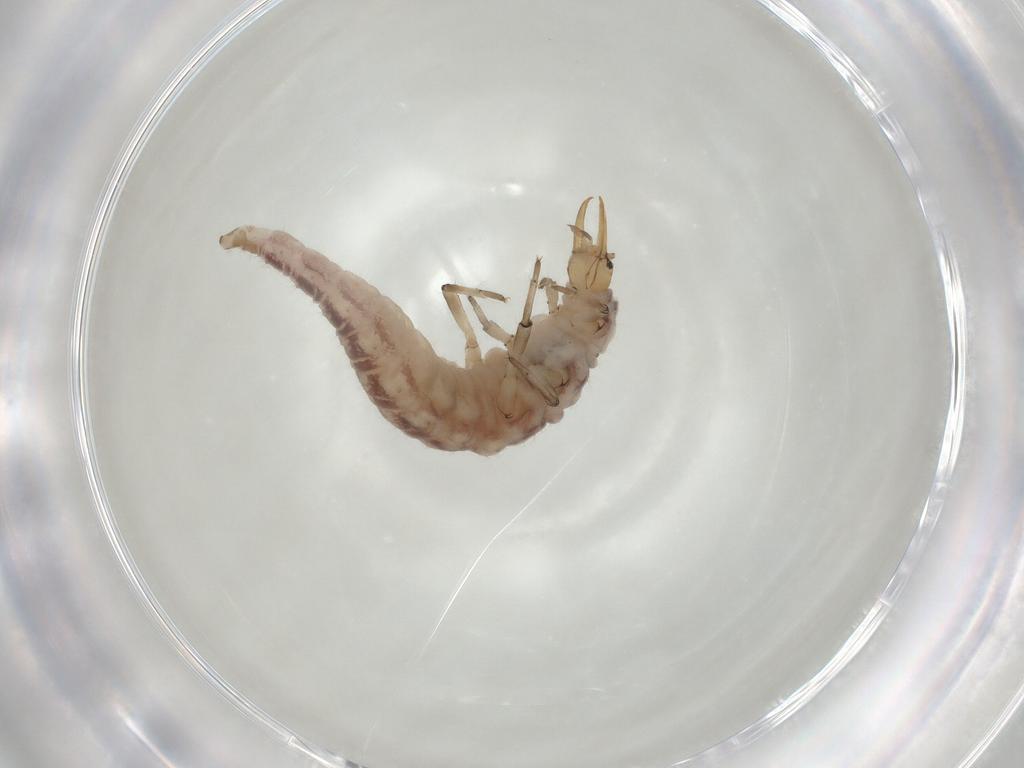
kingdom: Animalia
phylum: Arthropoda
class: Insecta
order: Neuroptera
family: Hemerobiidae
